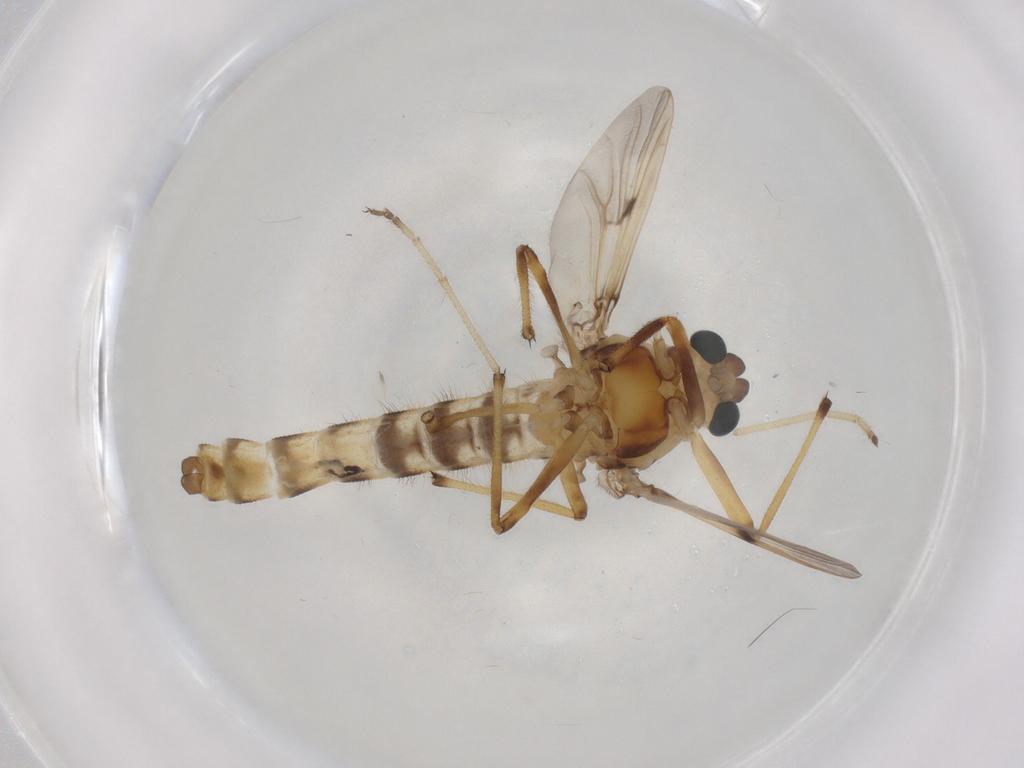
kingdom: Animalia
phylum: Arthropoda
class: Insecta
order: Diptera
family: Chironomidae
